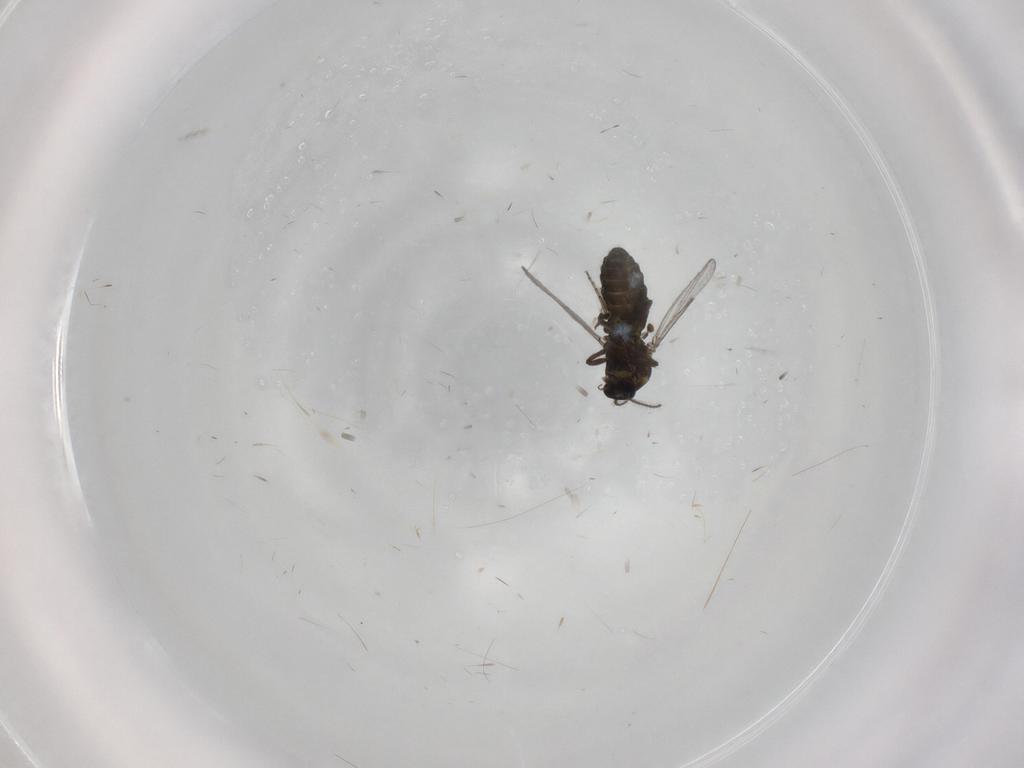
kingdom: Animalia
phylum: Arthropoda
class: Insecta
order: Diptera
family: Ceratopogonidae
